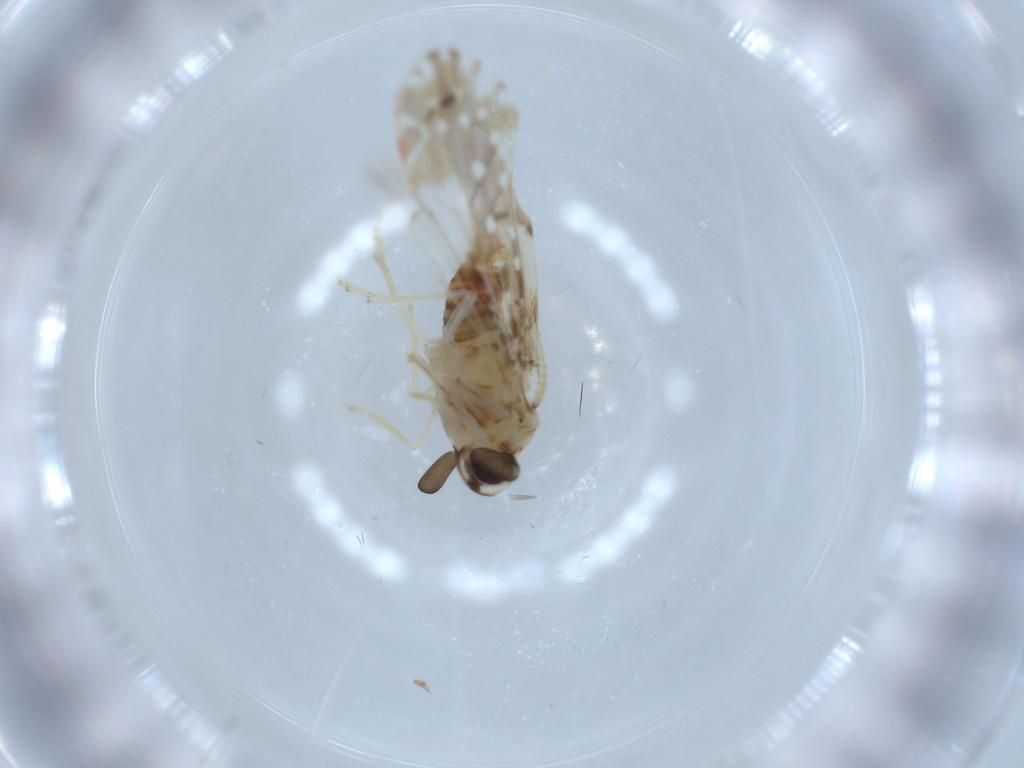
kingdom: Animalia
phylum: Arthropoda
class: Insecta
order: Hemiptera
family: Derbidae
